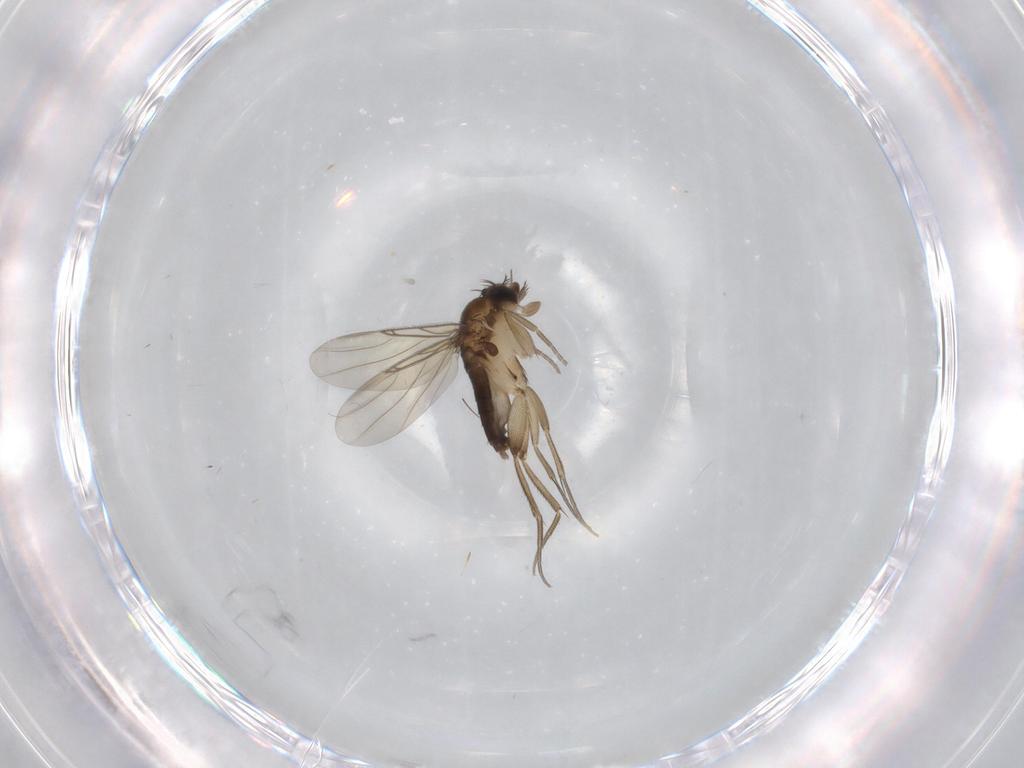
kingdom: Animalia
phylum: Arthropoda
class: Insecta
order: Diptera
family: Phoridae
